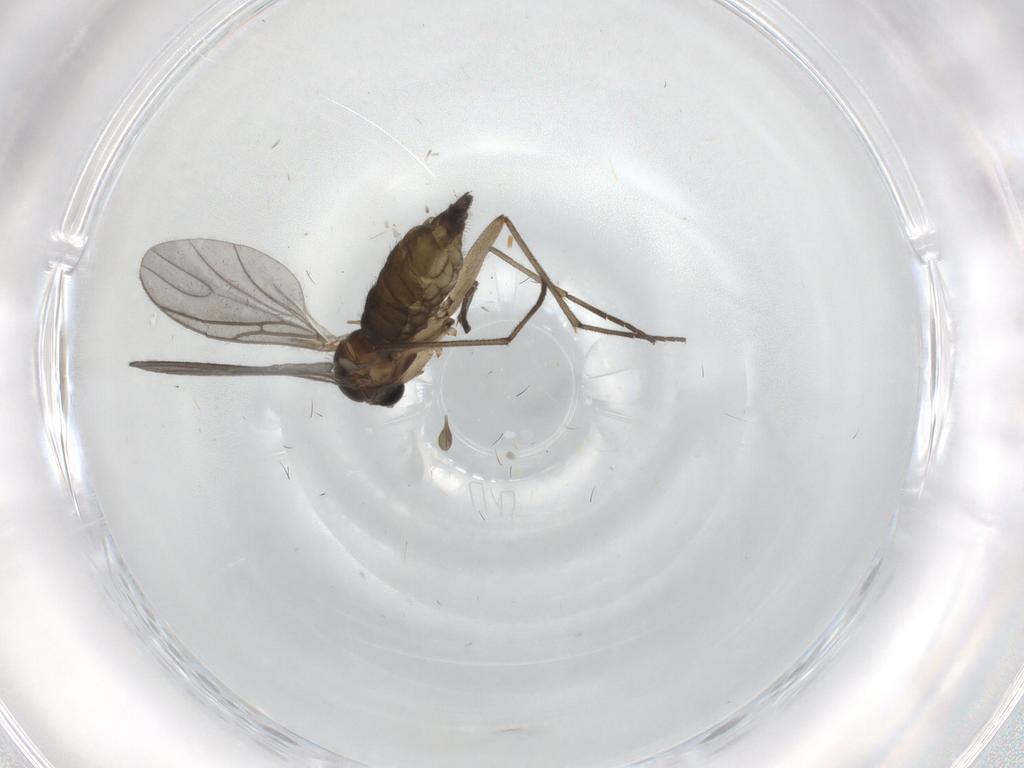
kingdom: Animalia
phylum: Arthropoda
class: Insecta
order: Diptera
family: Sciaridae
